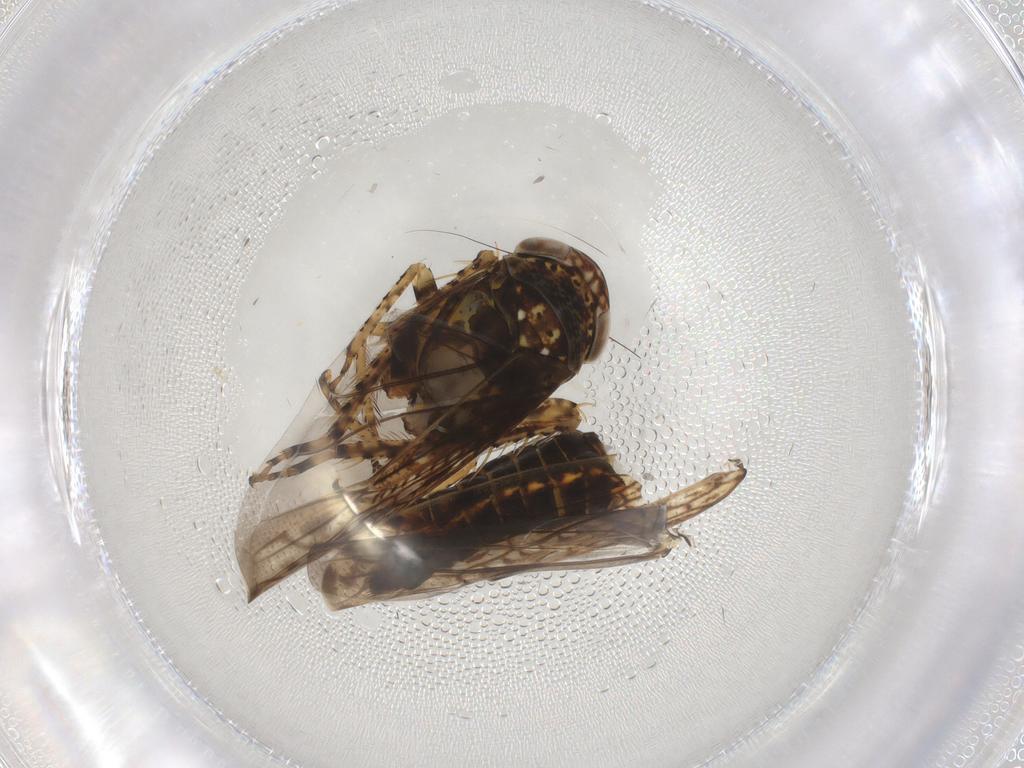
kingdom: Animalia
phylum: Arthropoda
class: Insecta
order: Hemiptera
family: Cicadellidae
